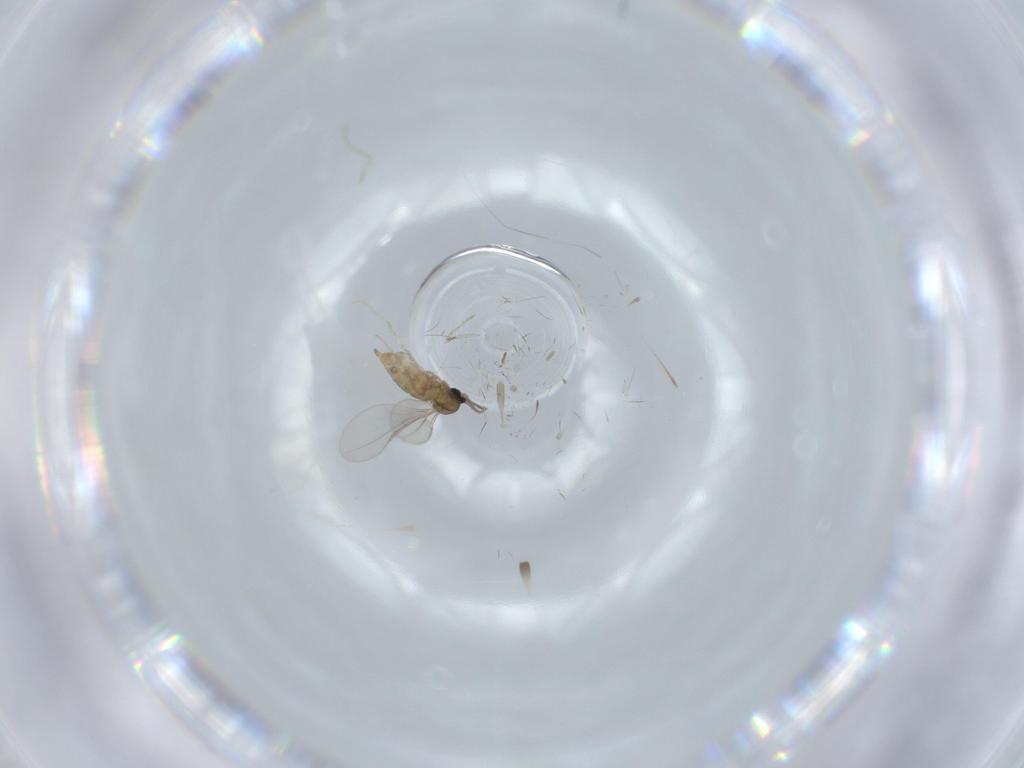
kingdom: Animalia
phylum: Arthropoda
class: Insecta
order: Diptera
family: Cecidomyiidae
